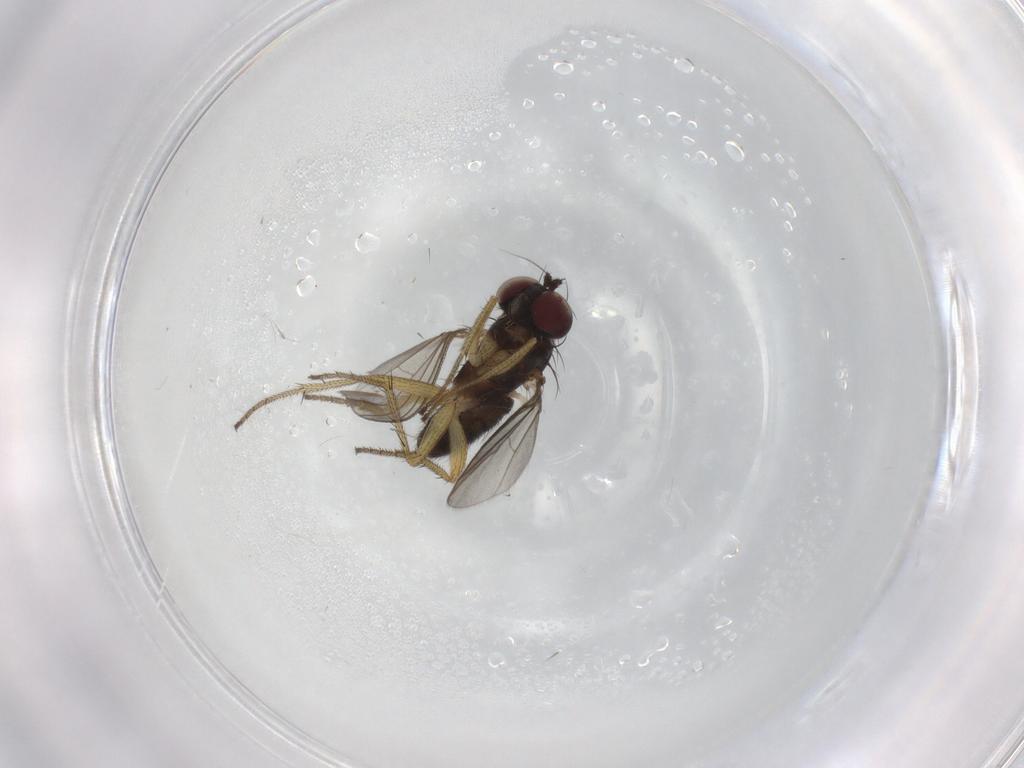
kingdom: Animalia
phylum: Arthropoda
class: Insecta
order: Diptera
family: Dolichopodidae
